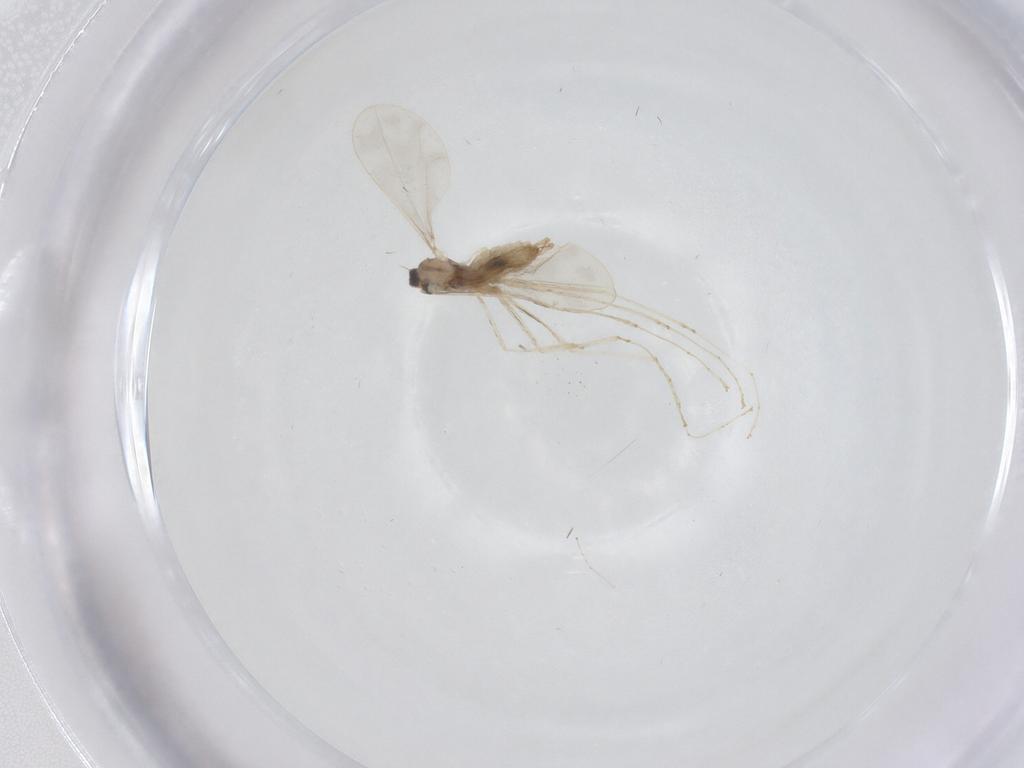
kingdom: Animalia
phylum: Arthropoda
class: Insecta
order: Diptera
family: Cecidomyiidae
